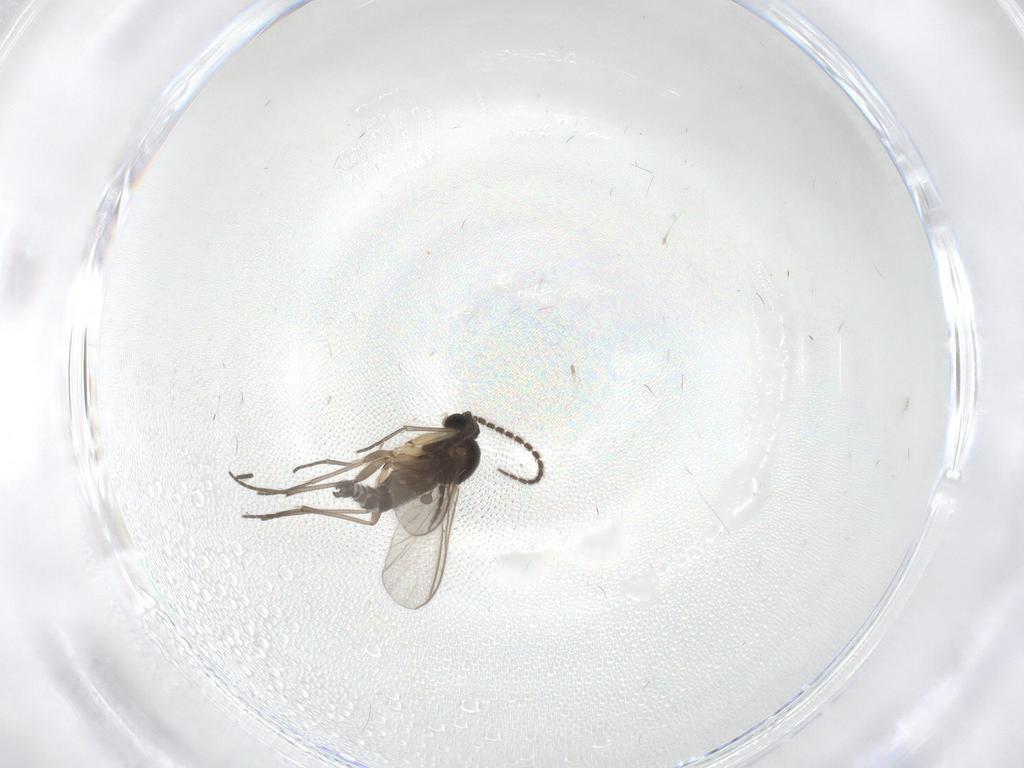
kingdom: Animalia
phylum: Arthropoda
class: Insecta
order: Diptera
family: Sciaridae
